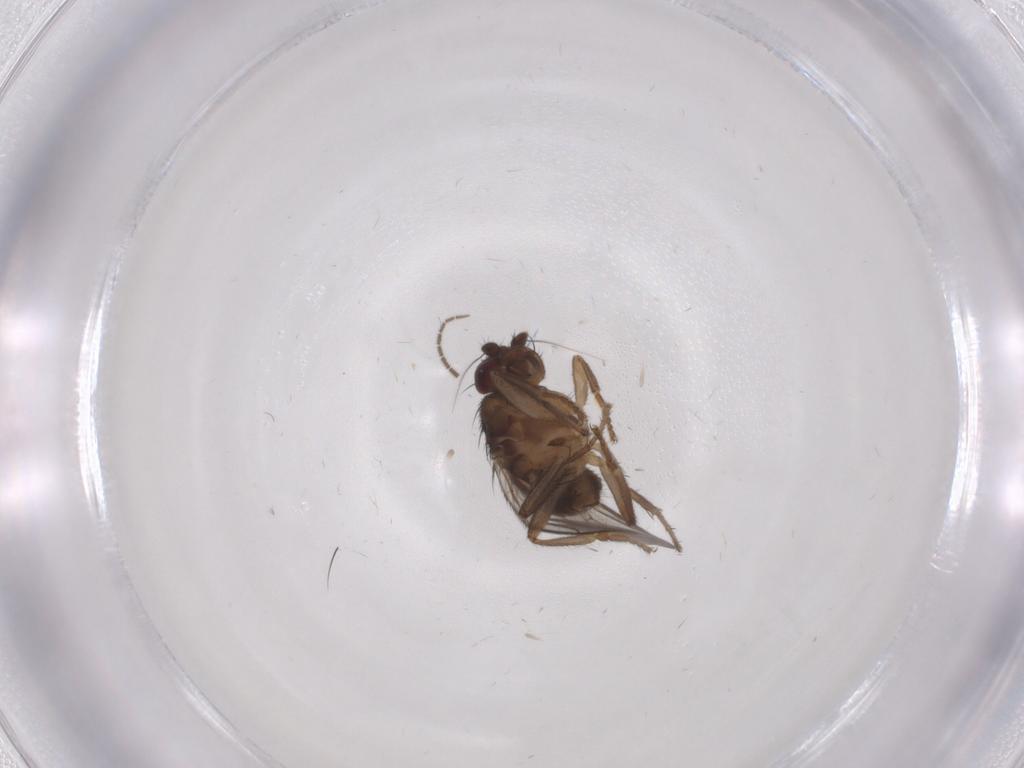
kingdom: Animalia
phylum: Arthropoda
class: Insecta
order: Diptera
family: Sphaeroceridae
